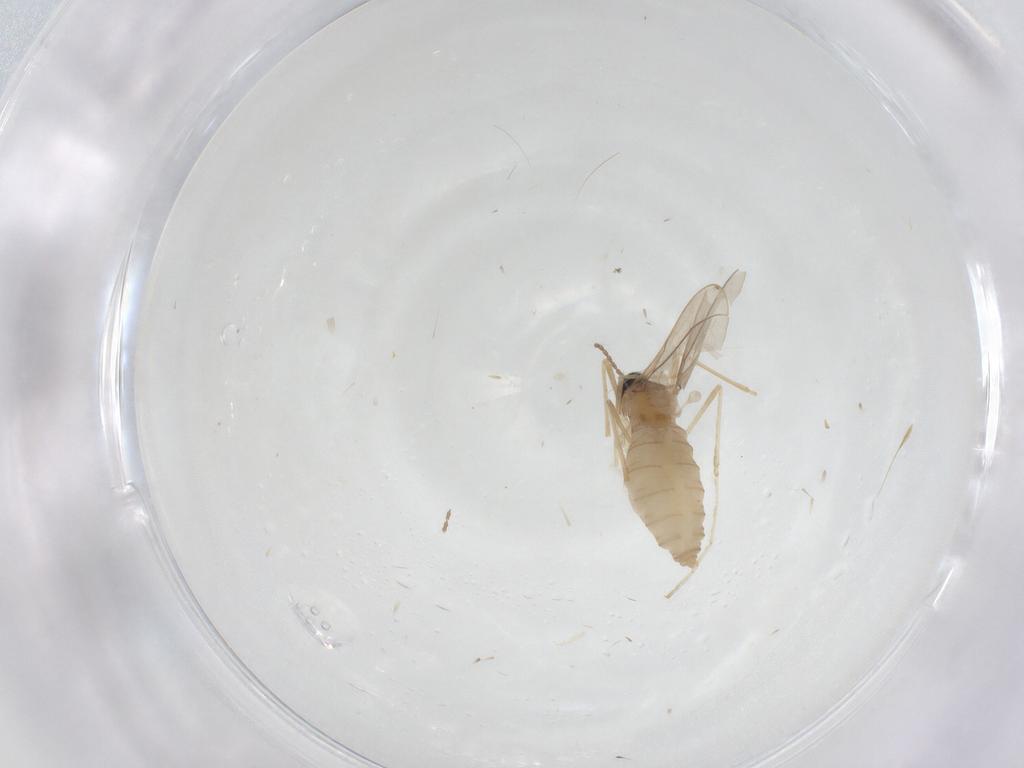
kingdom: Animalia
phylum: Arthropoda
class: Insecta
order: Diptera
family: Cecidomyiidae
